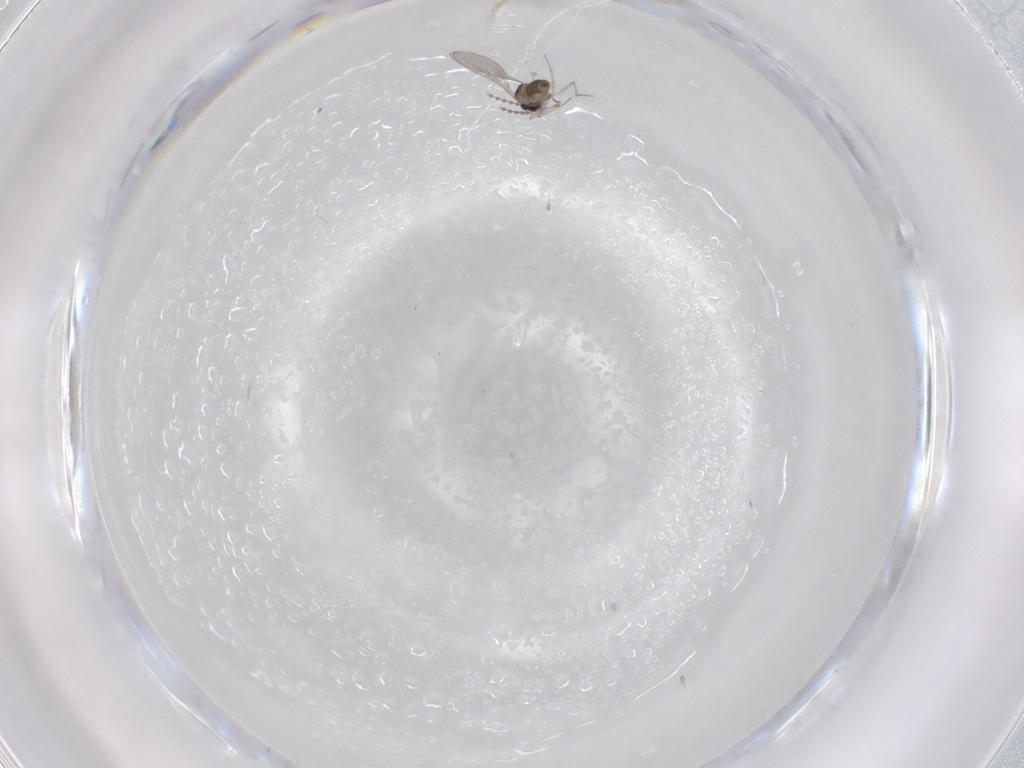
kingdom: Animalia
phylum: Arthropoda
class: Insecta
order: Diptera
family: Cecidomyiidae
